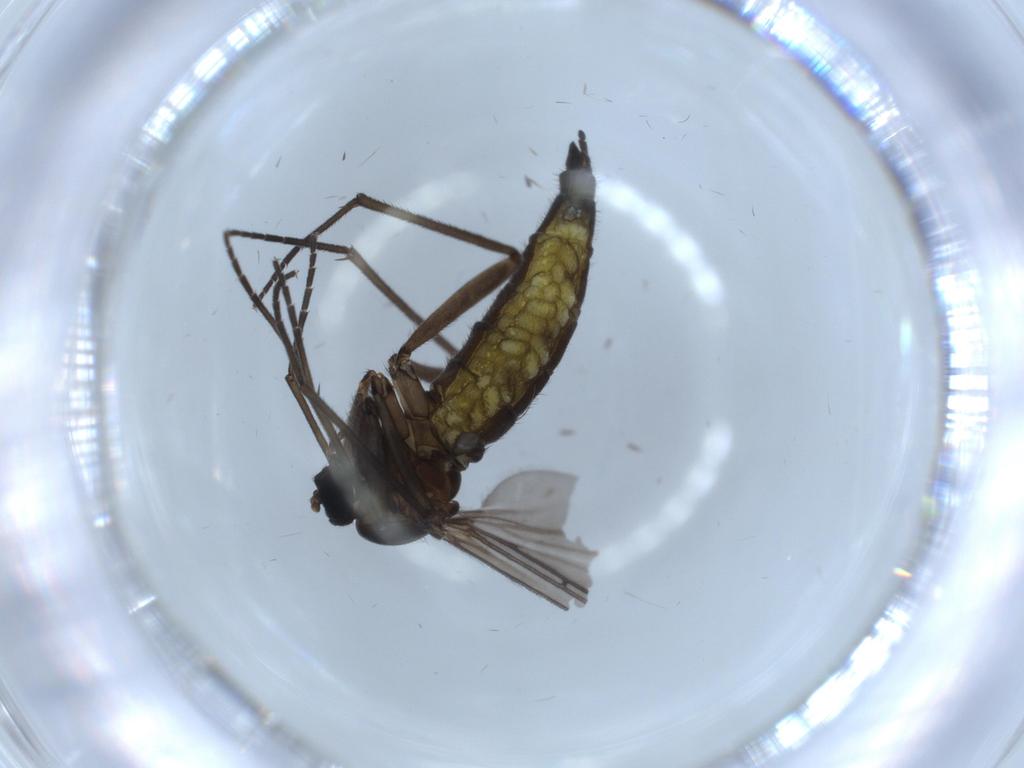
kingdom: Animalia
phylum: Arthropoda
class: Insecta
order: Diptera
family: Sciaridae
